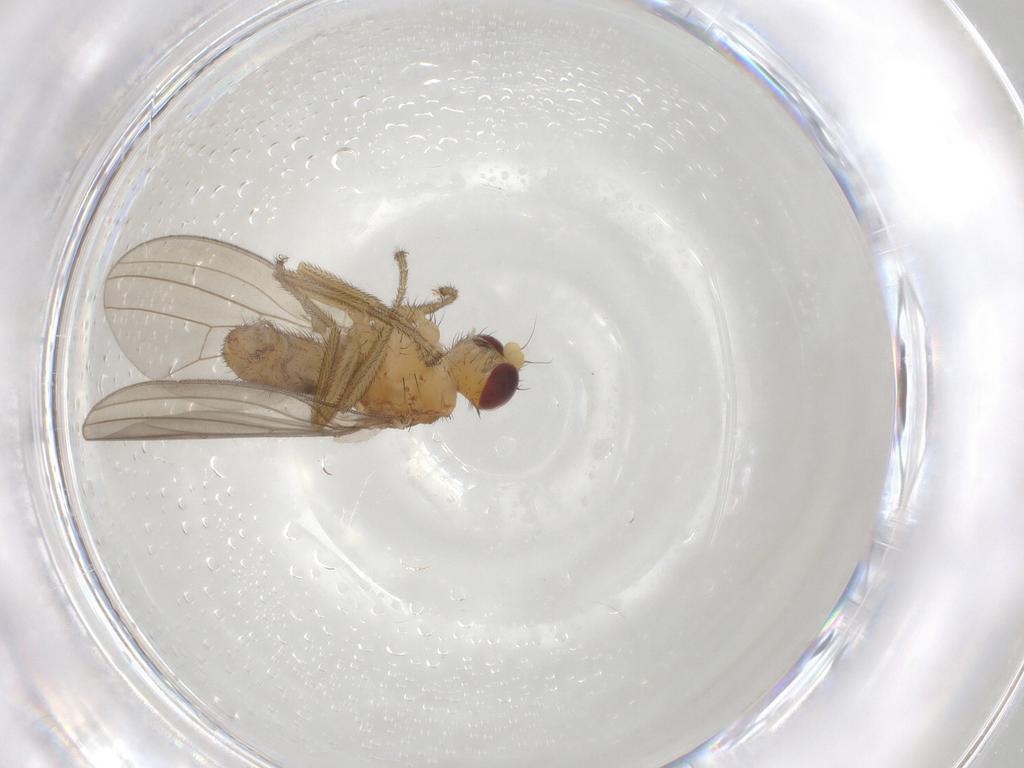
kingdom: Animalia
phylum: Arthropoda
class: Insecta
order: Diptera
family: Natalimyzidae
